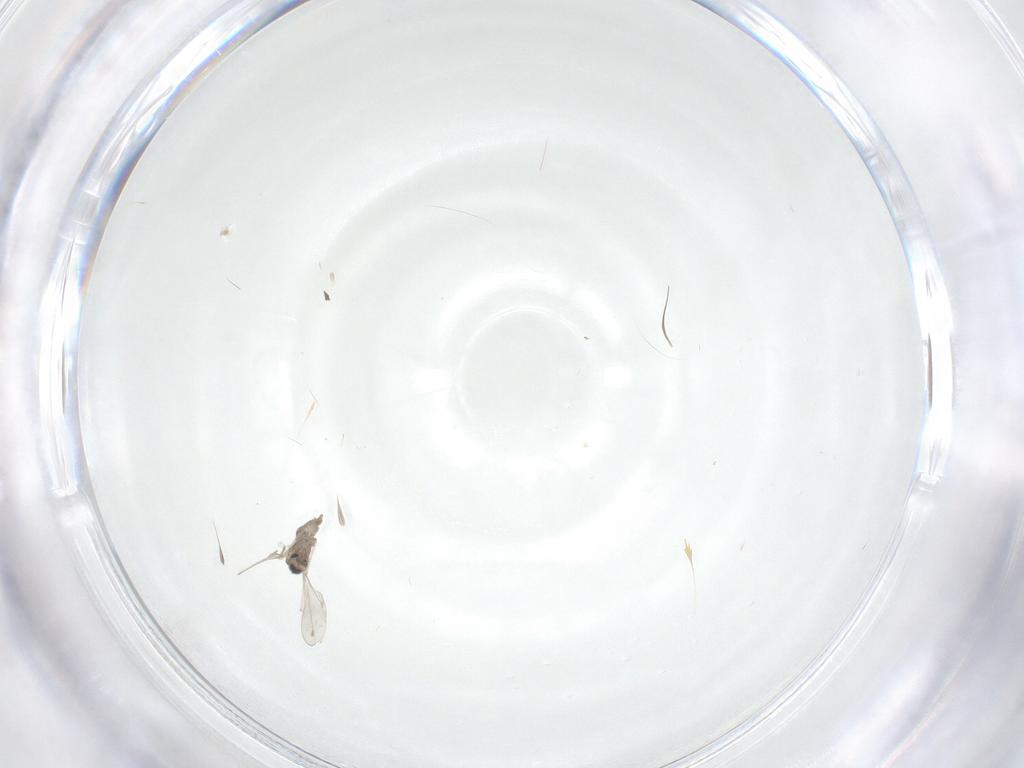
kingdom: Animalia
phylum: Arthropoda
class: Insecta
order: Diptera
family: Cecidomyiidae
